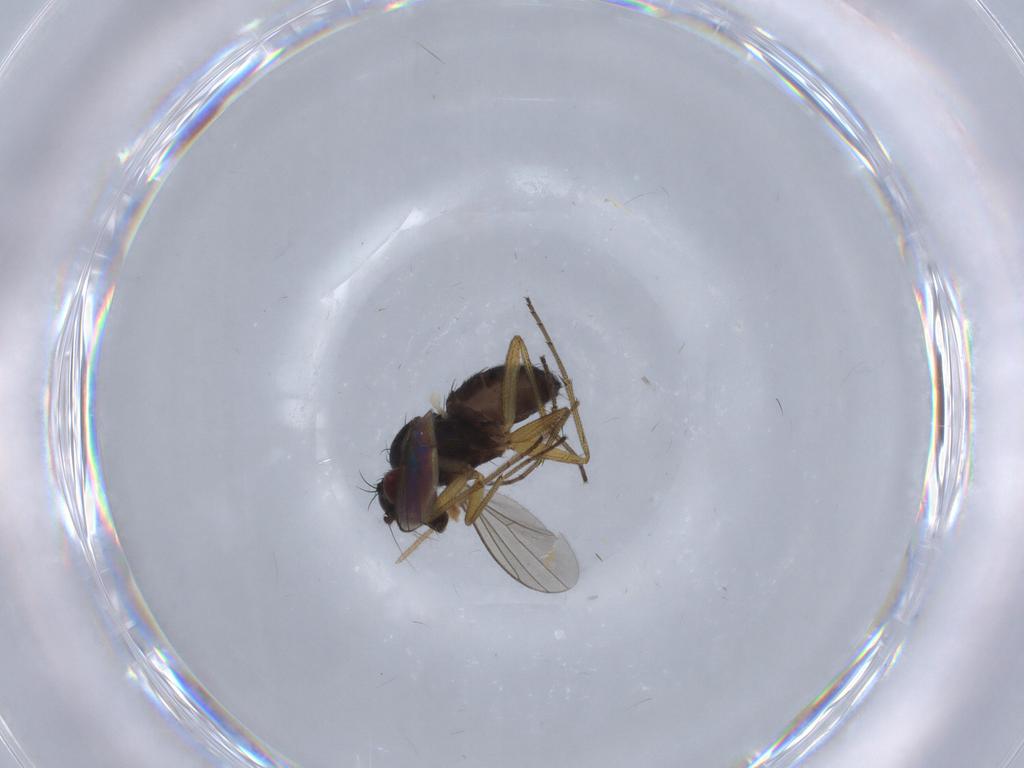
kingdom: Animalia
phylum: Arthropoda
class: Insecta
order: Diptera
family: Dolichopodidae
